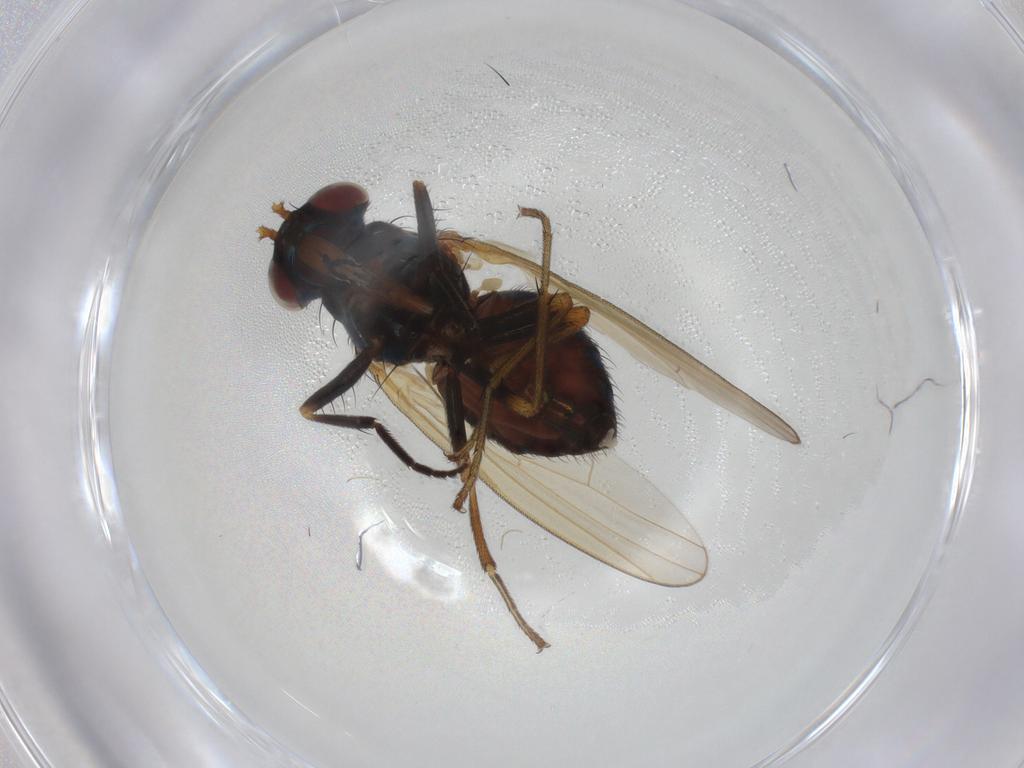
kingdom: Animalia
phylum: Arthropoda
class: Insecta
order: Diptera
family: Lauxaniidae
